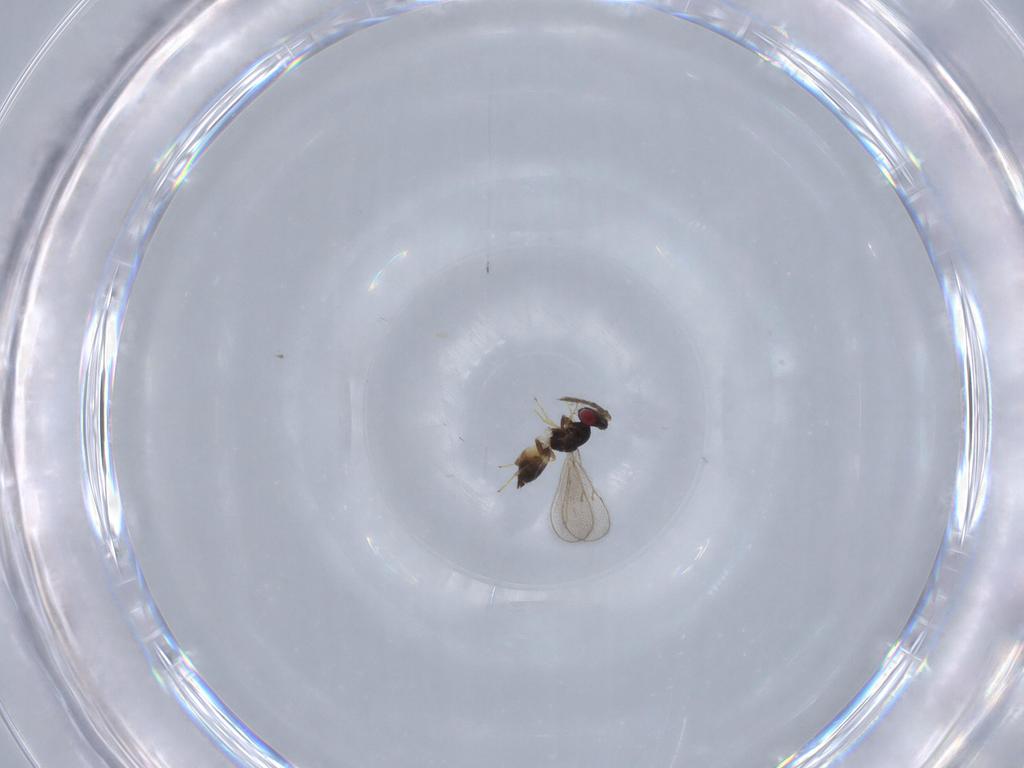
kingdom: Animalia
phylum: Arthropoda
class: Insecta
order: Hymenoptera
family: Eulophidae
